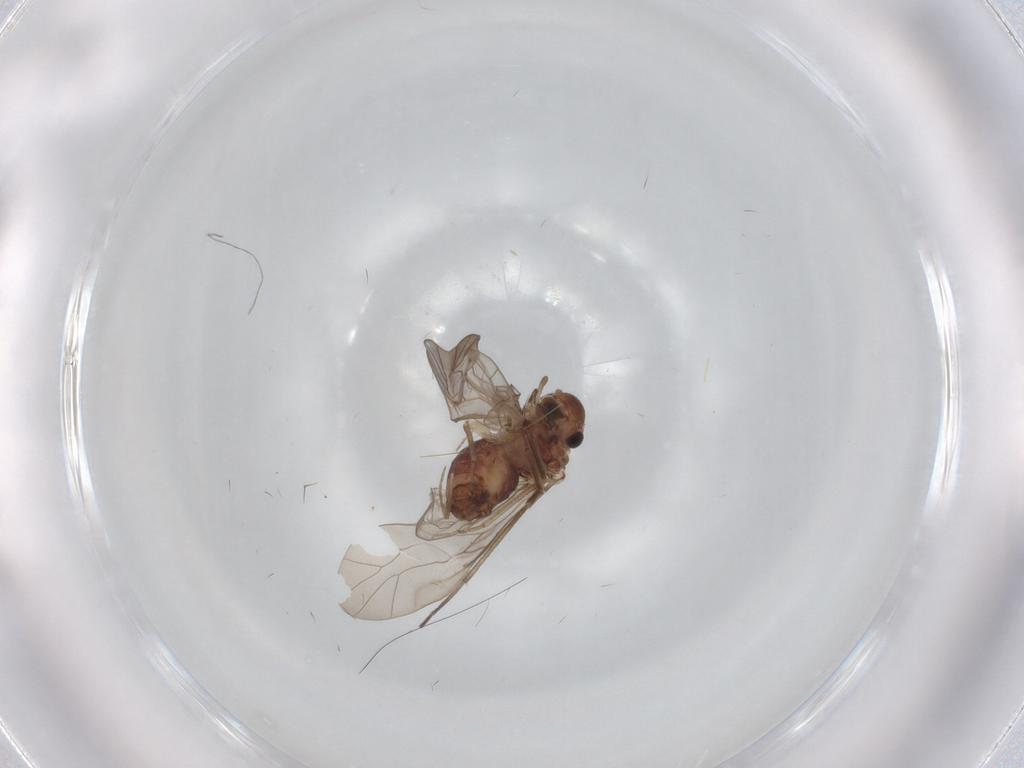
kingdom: Animalia
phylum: Arthropoda
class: Insecta
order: Psocodea
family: Peripsocidae
